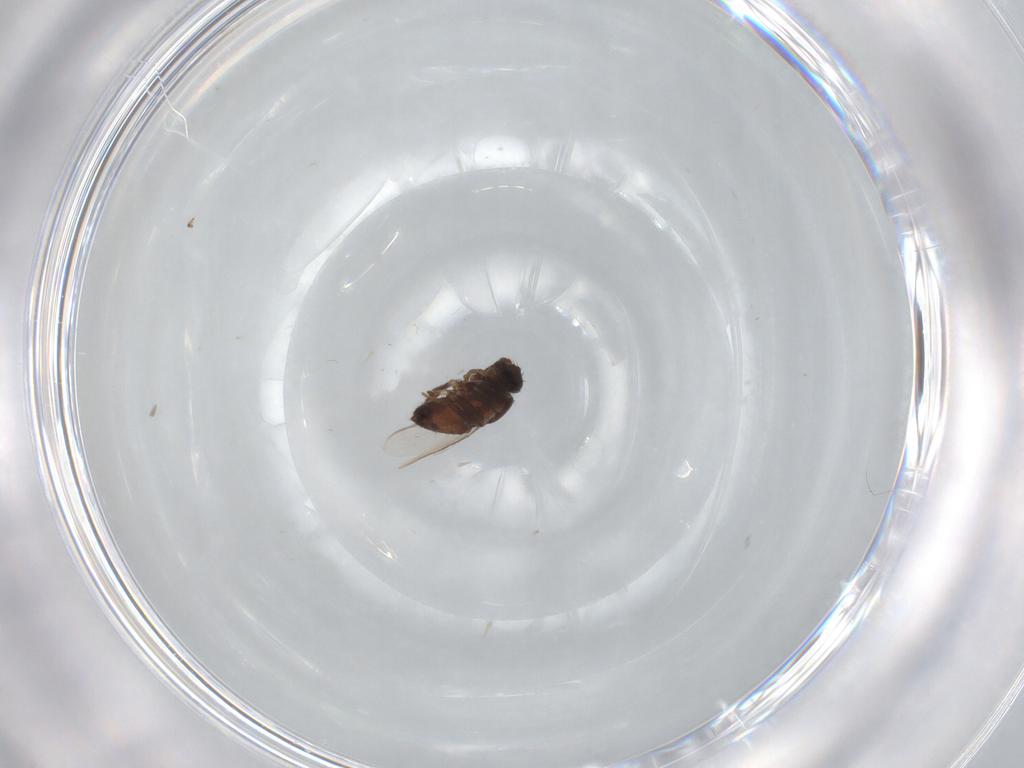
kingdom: Animalia
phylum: Arthropoda
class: Insecta
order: Diptera
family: Sphaeroceridae
